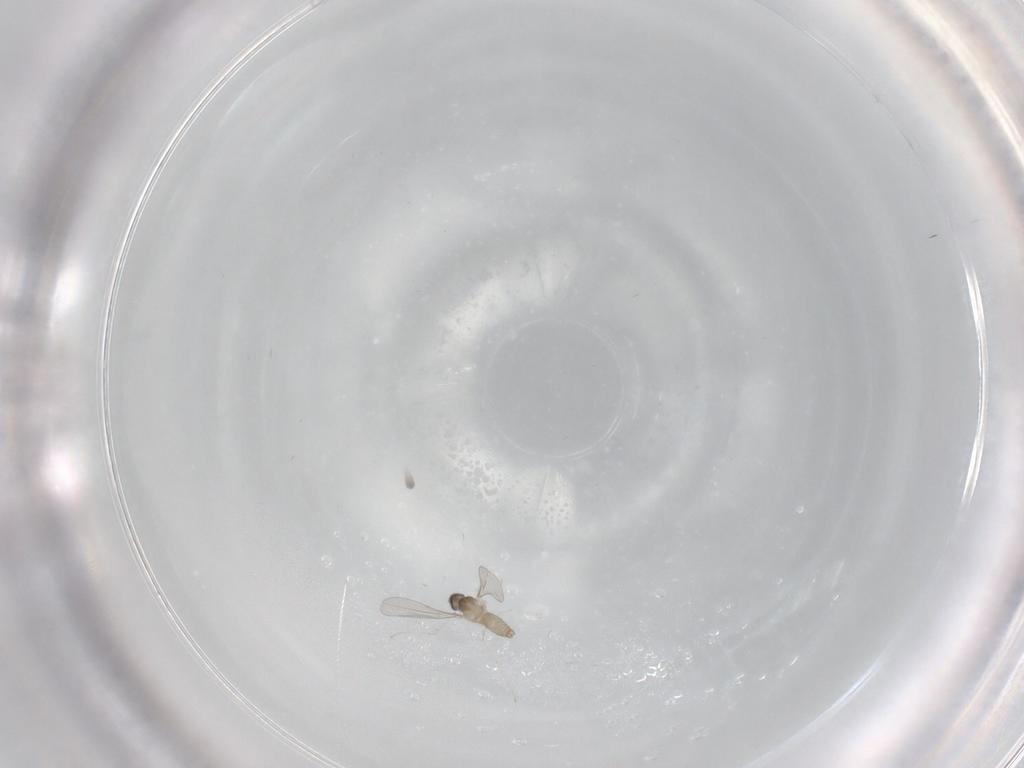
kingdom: Animalia
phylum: Arthropoda
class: Insecta
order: Diptera
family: Cecidomyiidae
